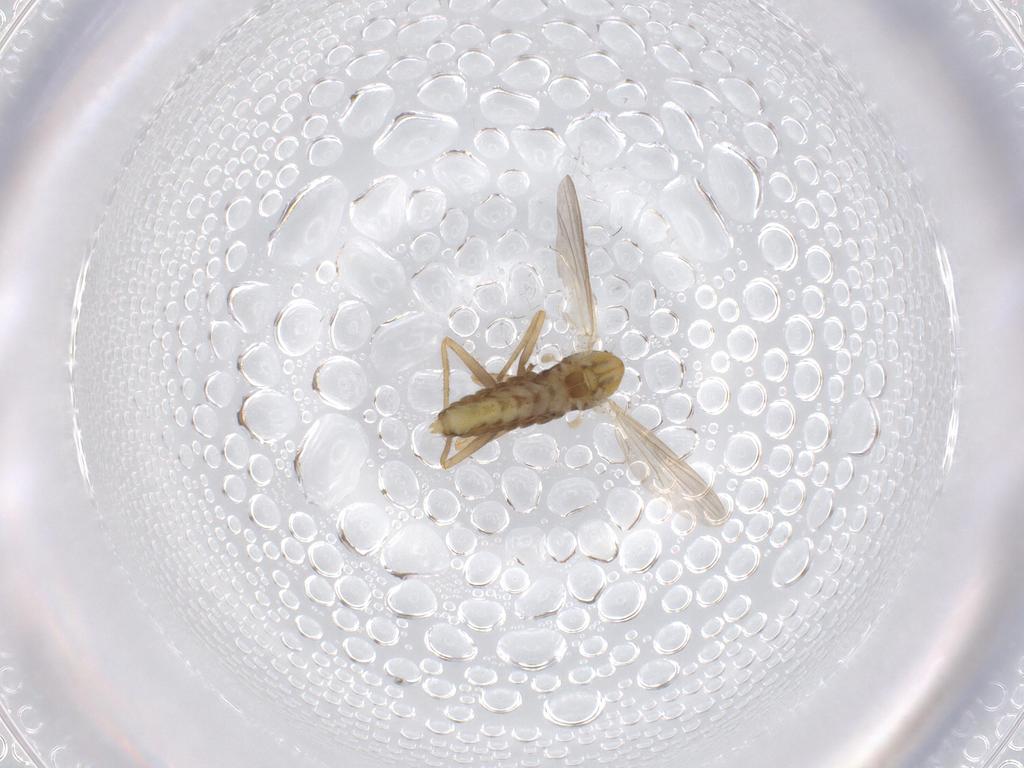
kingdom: Animalia
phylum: Arthropoda
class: Insecta
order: Diptera
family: Chironomidae
